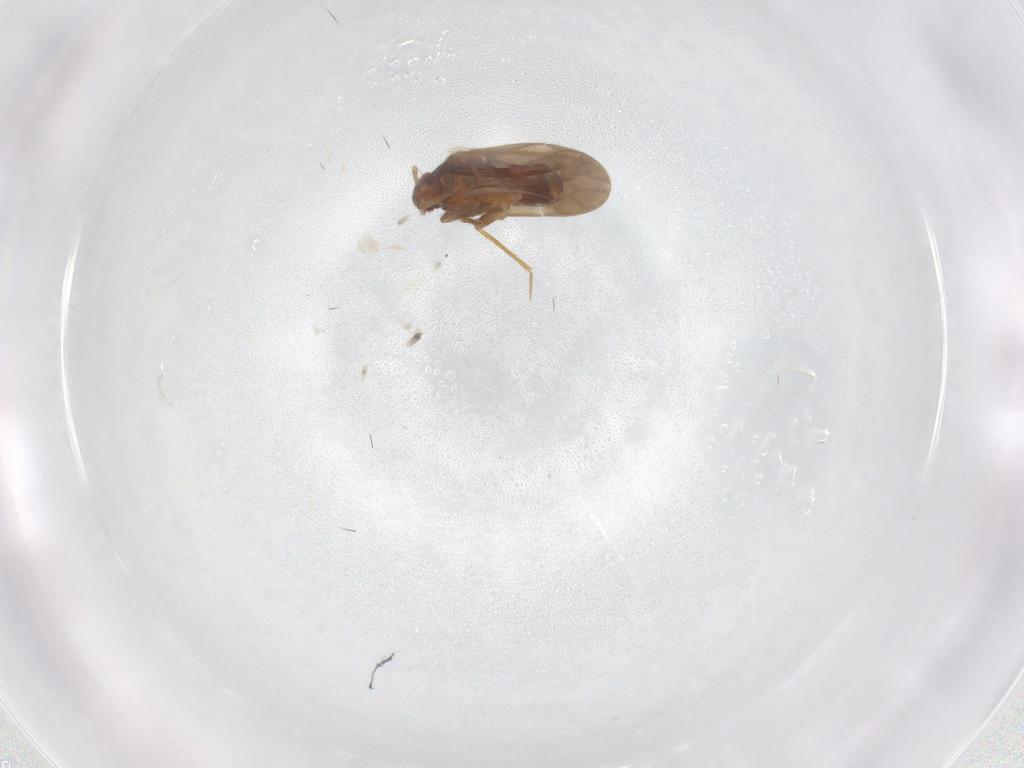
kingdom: Animalia
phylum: Arthropoda
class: Insecta
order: Hemiptera
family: Ceratocombidae
